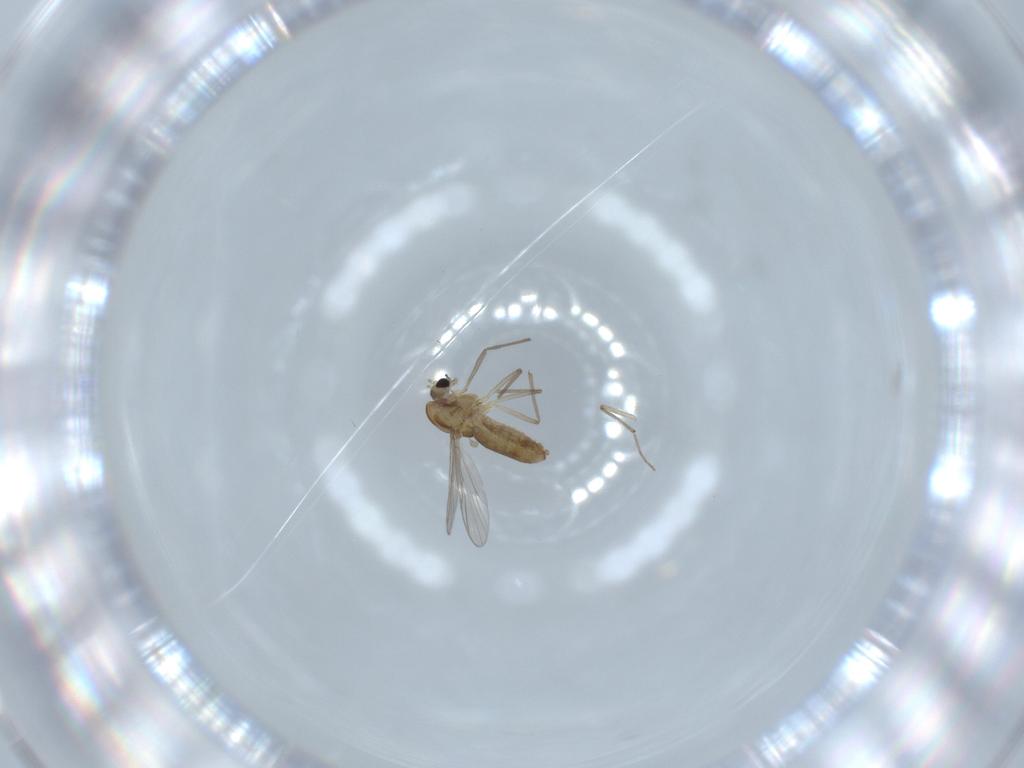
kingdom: Animalia
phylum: Arthropoda
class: Insecta
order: Diptera
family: Chironomidae
